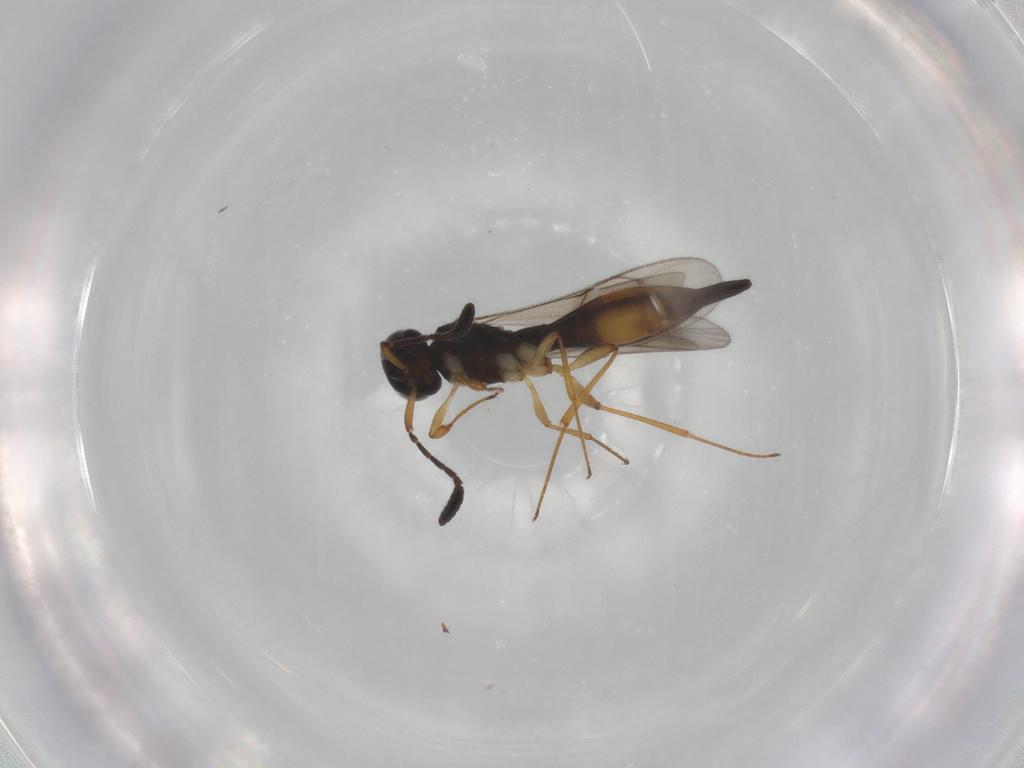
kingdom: Animalia
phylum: Arthropoda
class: Insecta
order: Hymenoptera
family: Scelionidae
